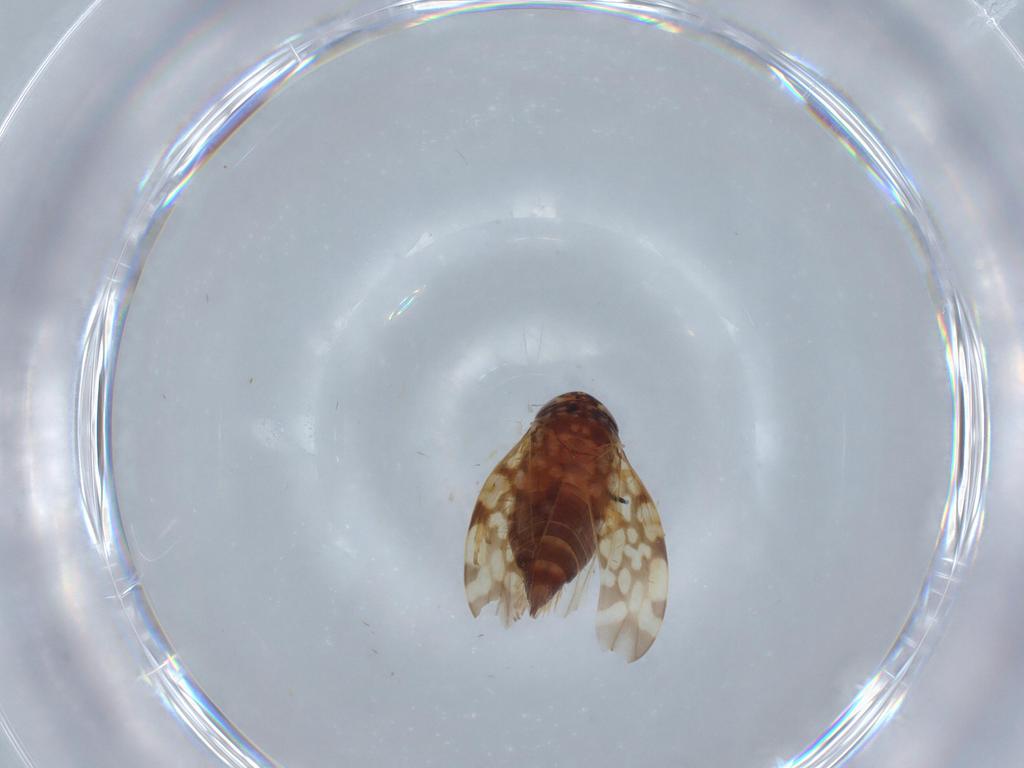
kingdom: Animalia
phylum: Arthropoda
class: Insecta
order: Hemiptera
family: Cicadellidae
